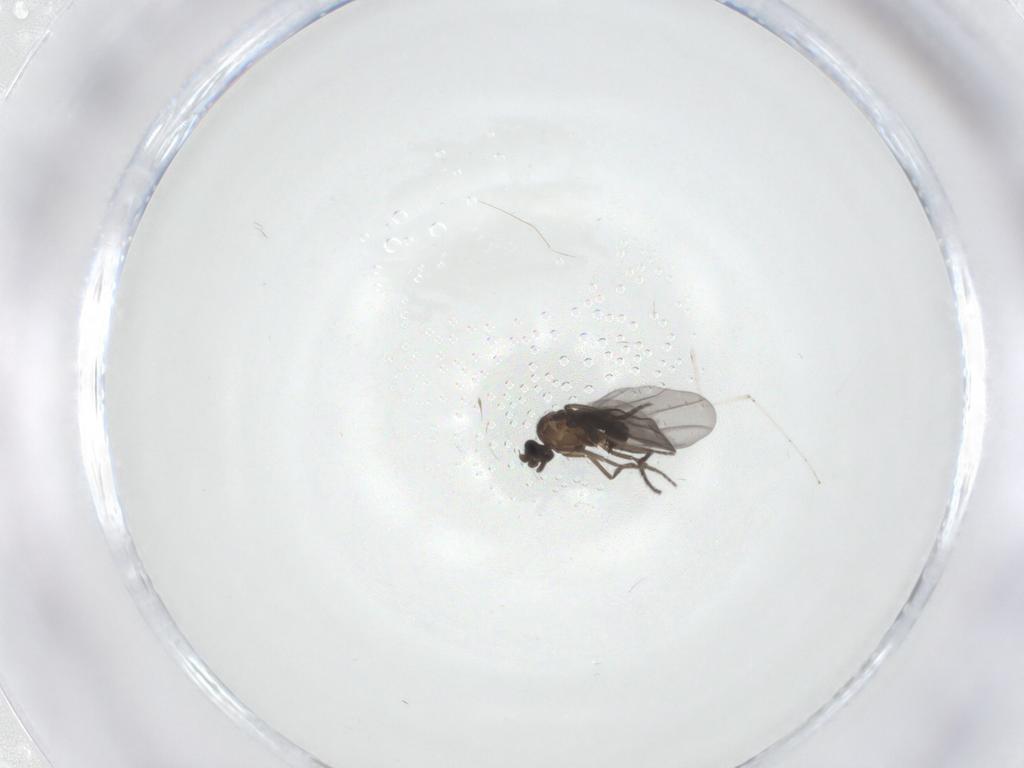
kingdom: Animalia
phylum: Arthropoda
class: Insecta
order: Diptera
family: Cecidomyiidae
